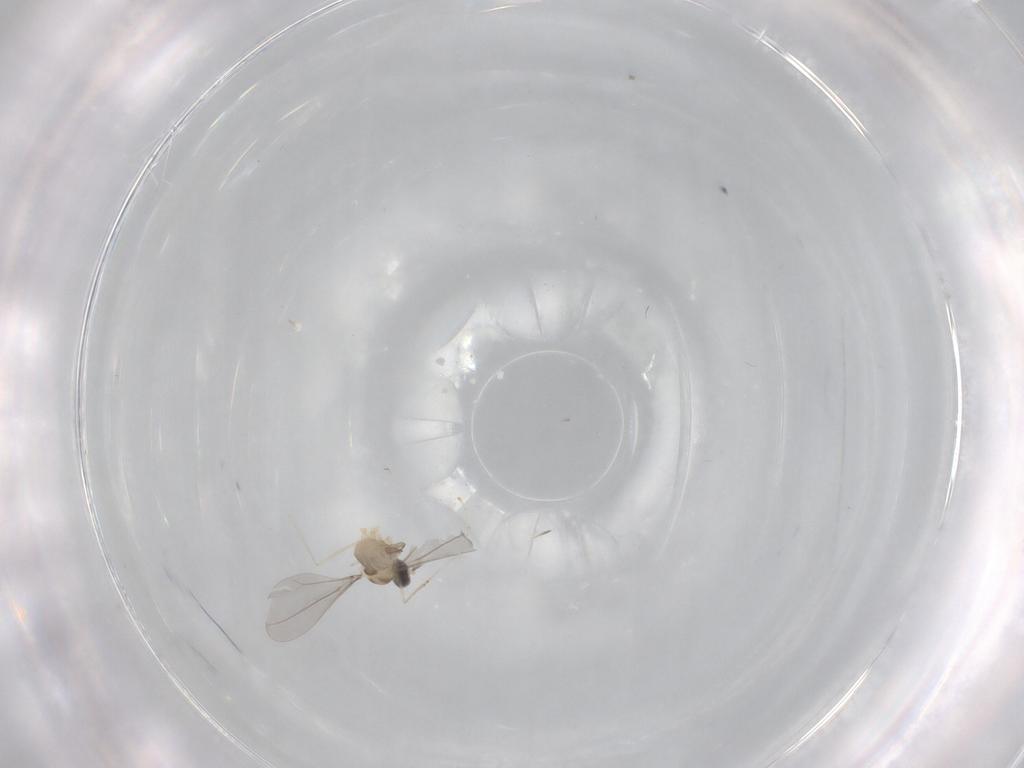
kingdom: Animalia
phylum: Arthropoda
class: Insecta
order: Diptera
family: Cecidomyiidae
